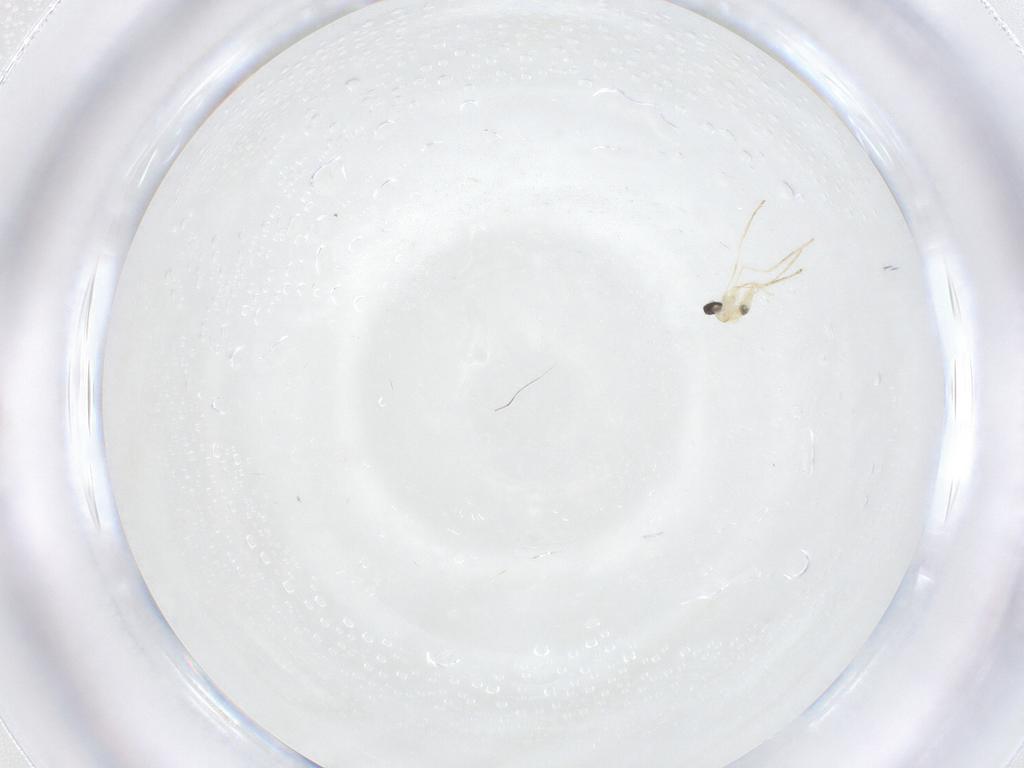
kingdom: Animalia
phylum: Arthropoda
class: Insecta
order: Diptera
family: Cecidomyiidae
